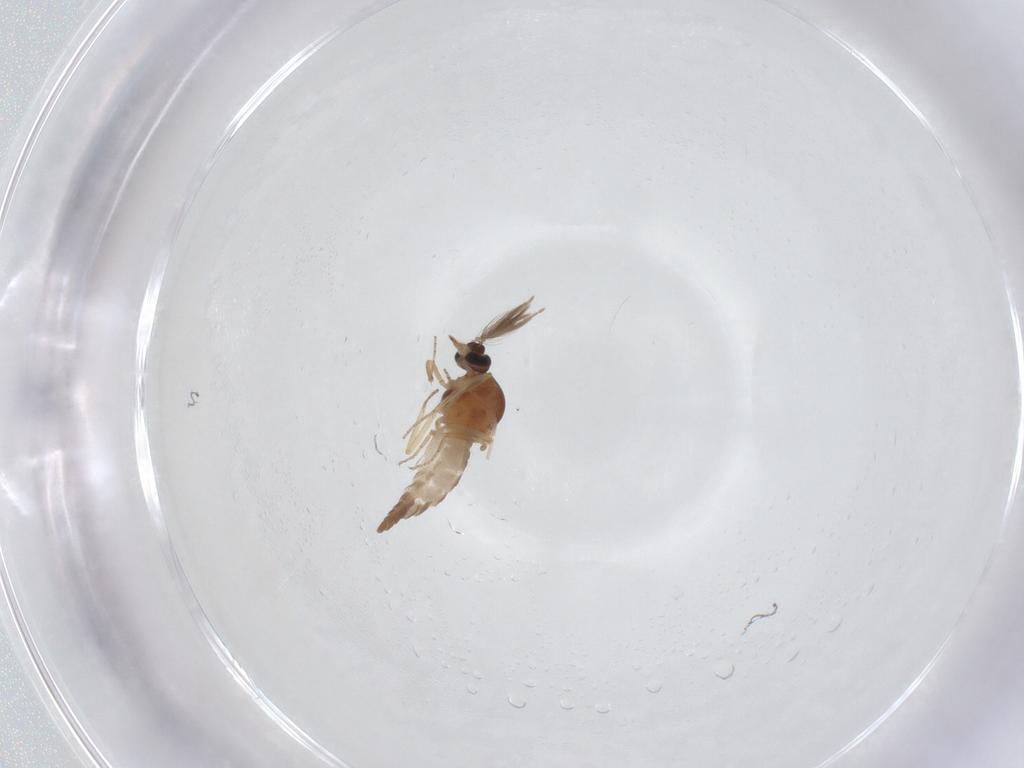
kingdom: Animalia
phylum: Arthropoda
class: Insecta
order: Diptera
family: Ceratopogonidae
